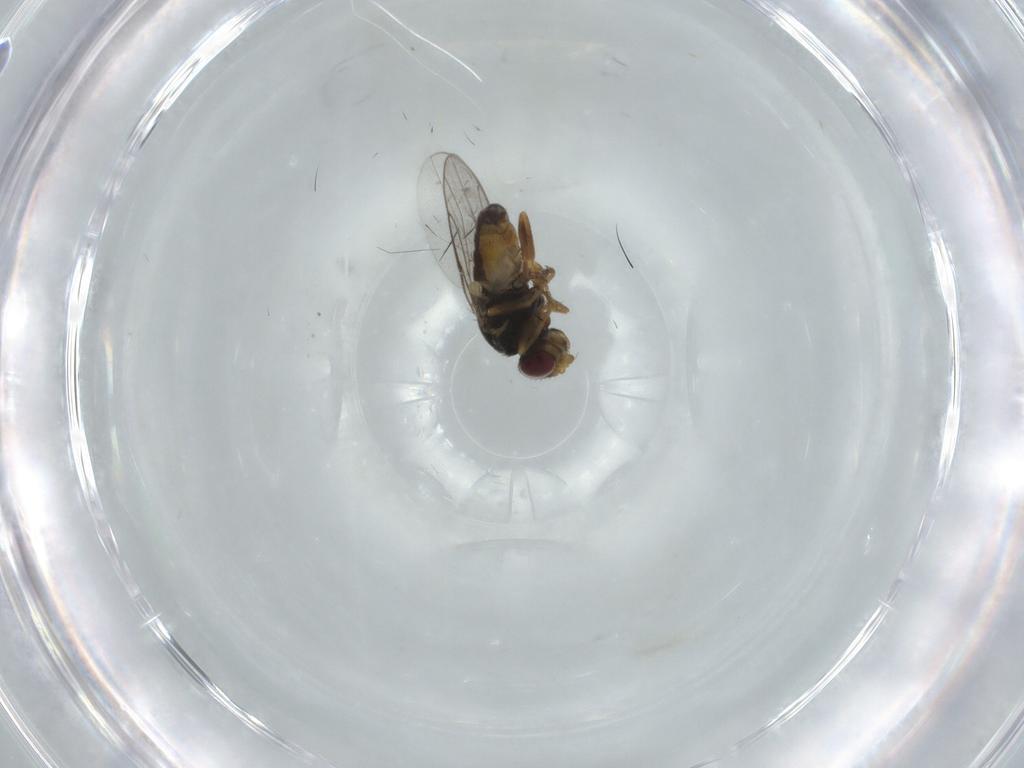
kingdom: Animalia
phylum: Arthropoda
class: Insecta
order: Diptera
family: Chloropidae
